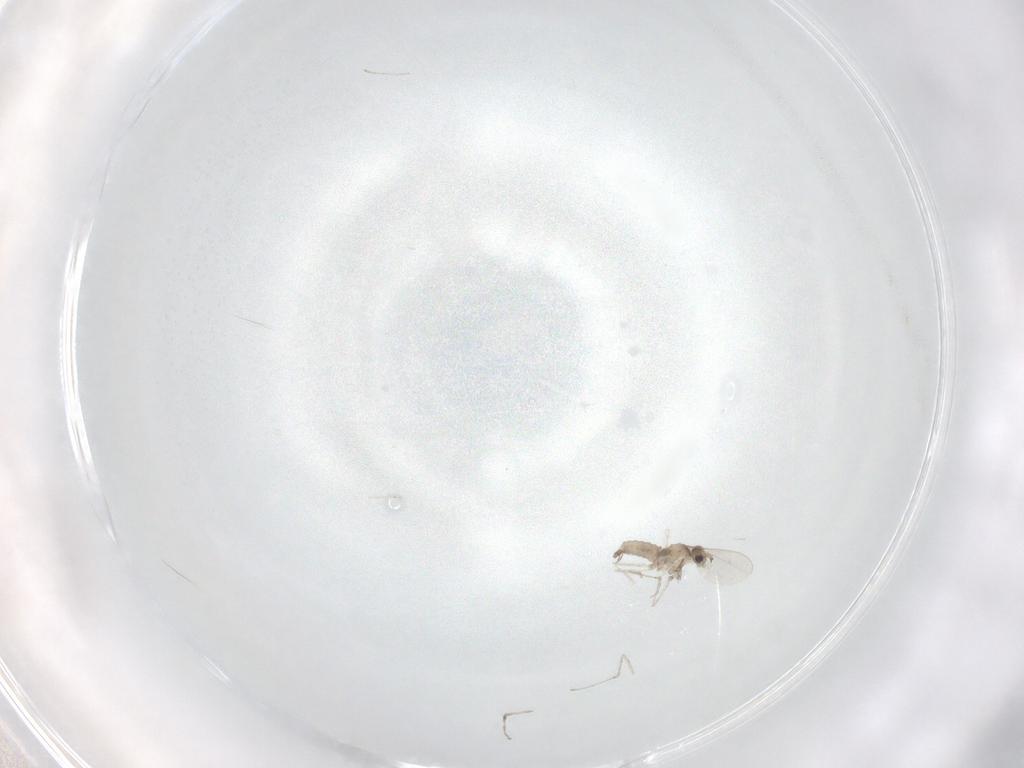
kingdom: Animalia
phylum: Arthropoda
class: Insecta
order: Diptera
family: Cecidomyiidae
